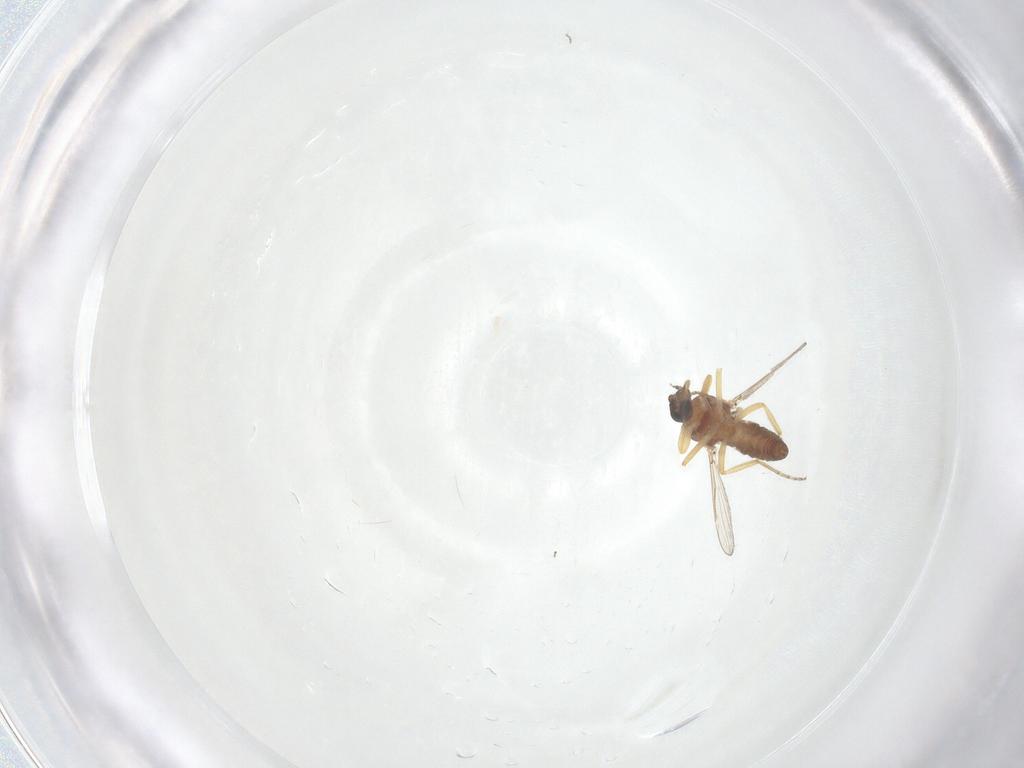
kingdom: Animalia
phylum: Arthropoda
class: Insecta
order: Diptera
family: Ceratopogonidae
